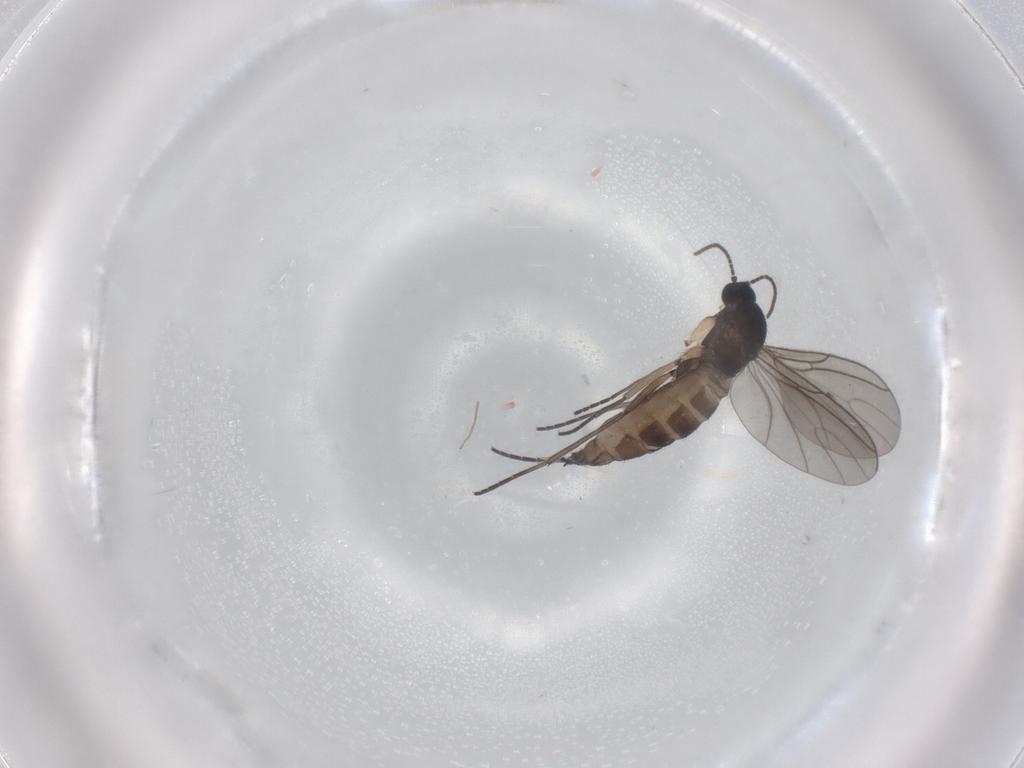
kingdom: Animalia
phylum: Arthropoda
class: Insecta
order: Diptera
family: Sciaridae
